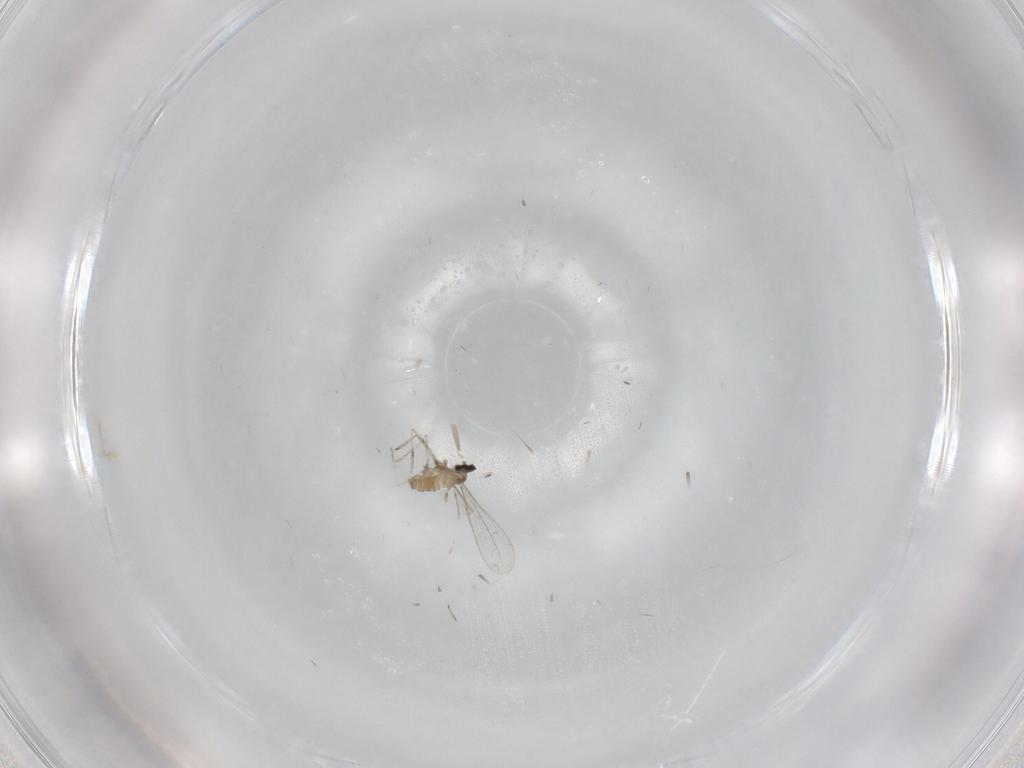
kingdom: Animalia
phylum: Arthropoda
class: Insecta
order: Diptera
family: Cecidomyiidae
